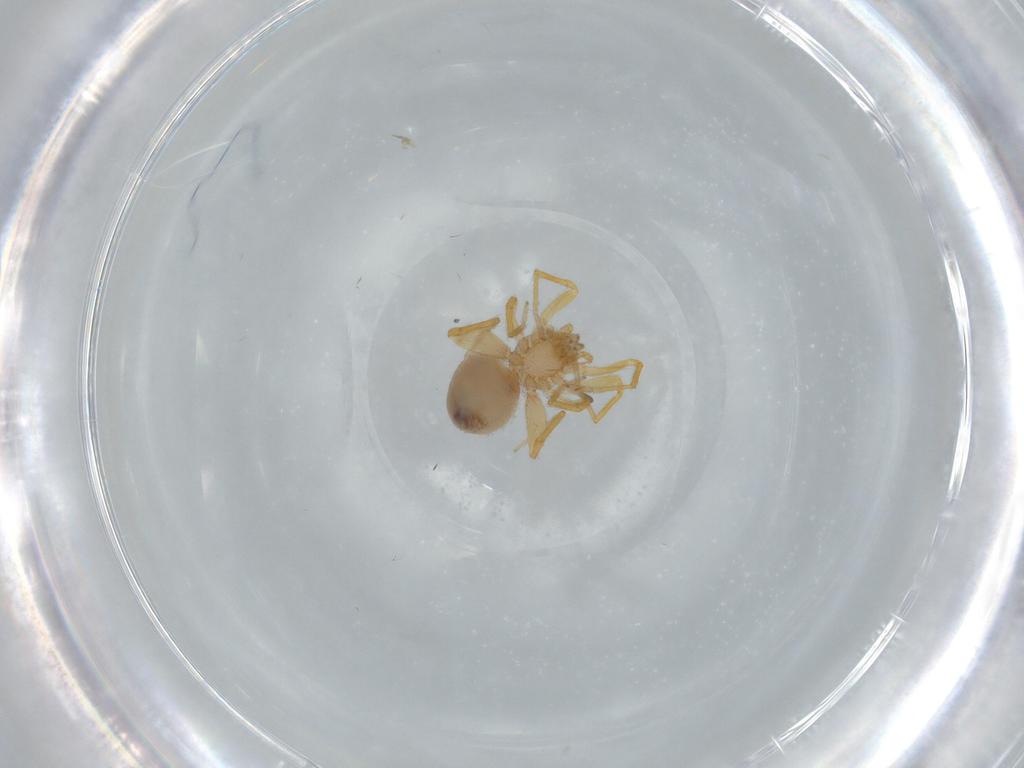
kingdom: Animalia
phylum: Arthropoda
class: Arachnida
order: Araneae
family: Oonopidae
